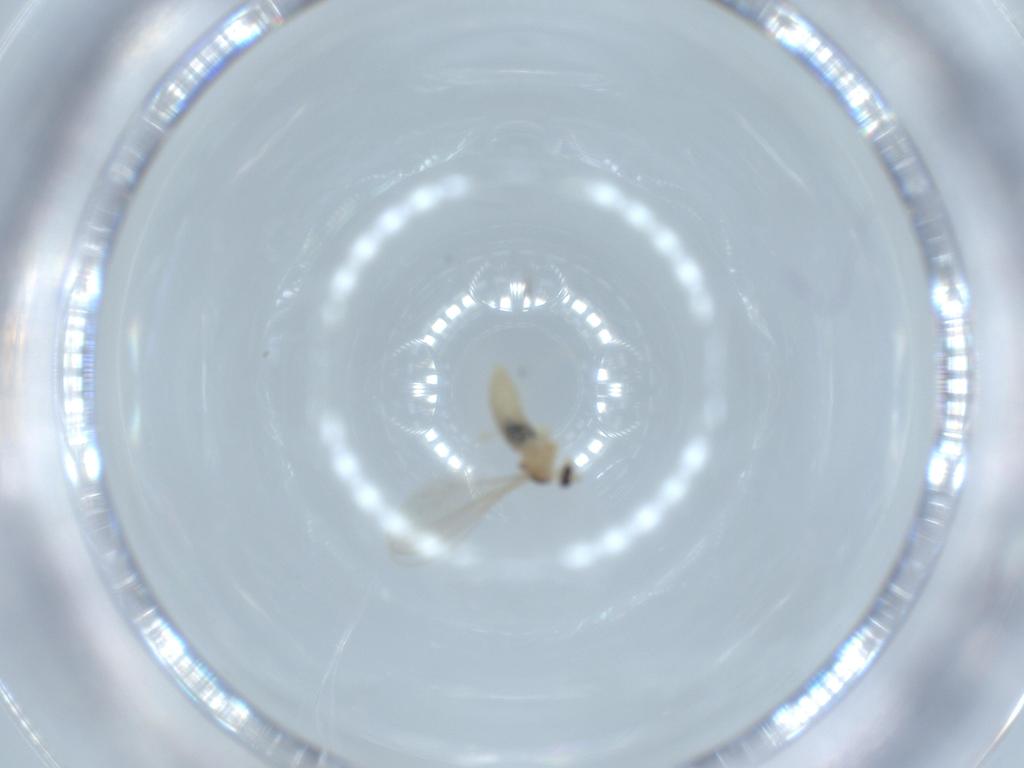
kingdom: Animalia
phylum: Arthropoda
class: Insecta
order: Diptera
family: Cecidomyiidae
